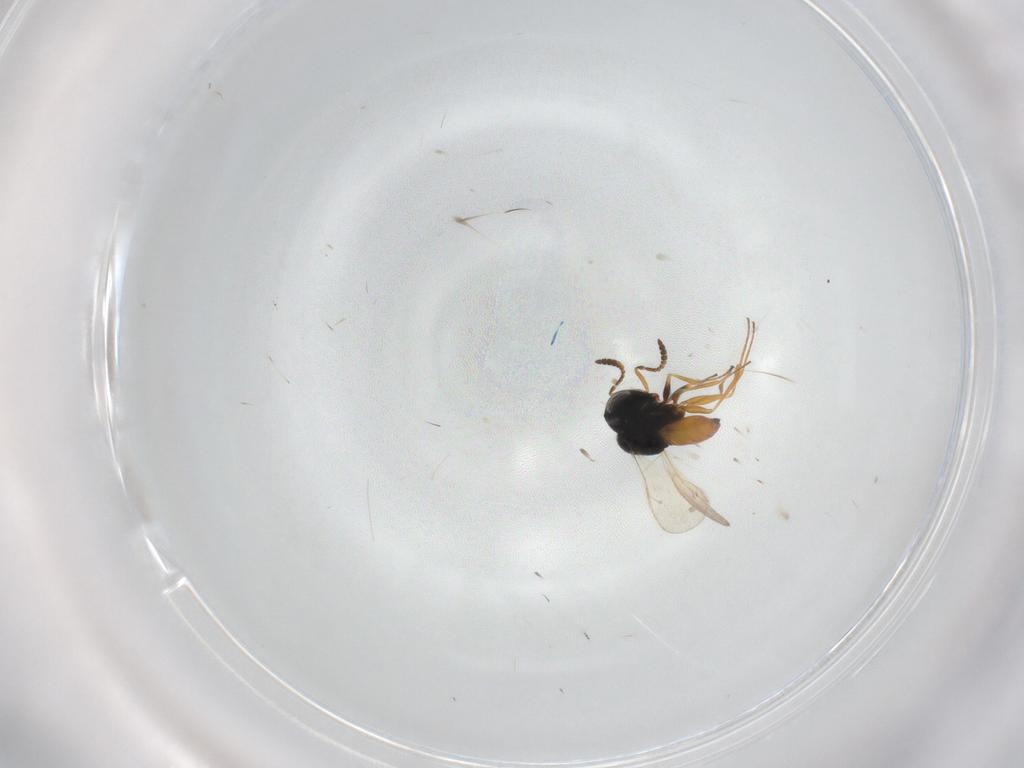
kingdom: Animalia
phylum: Arthropoda
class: Insecta
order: Hymenoptera
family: Scelionidae
